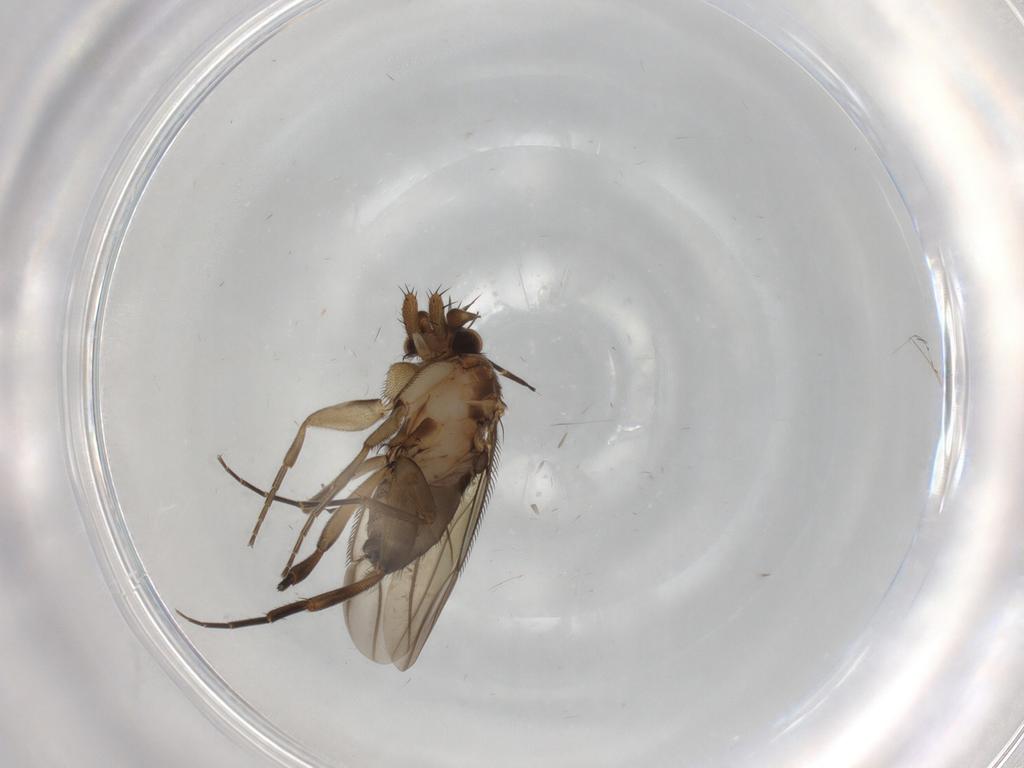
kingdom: Animalia
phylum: Arthropoda
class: Insecta
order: Diptera
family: Phoridae
